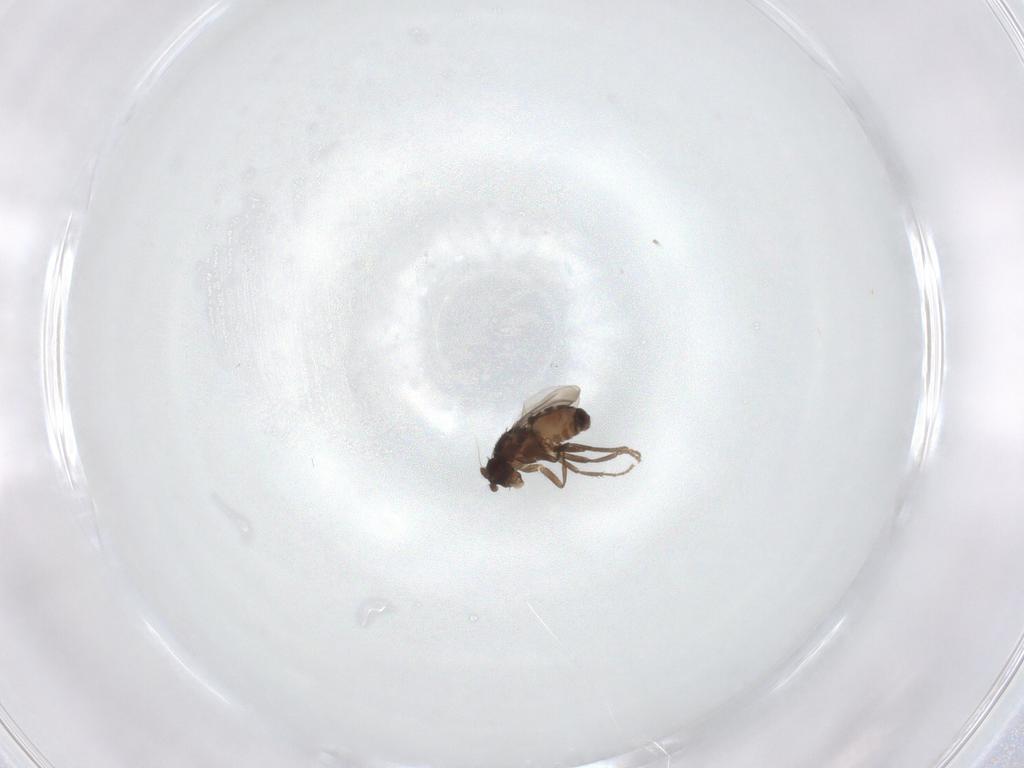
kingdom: Animalia
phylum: Arthropoda
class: Insecta
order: Diptera
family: Sphaeroceridae
